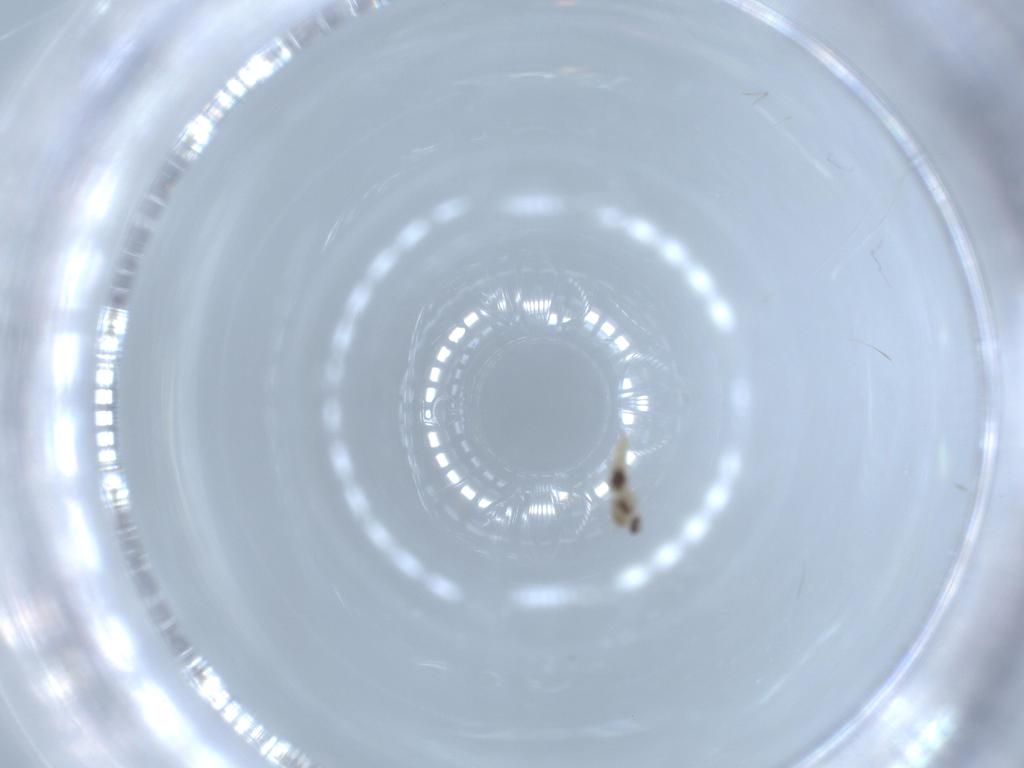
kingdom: Animalia
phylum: Arthropoda
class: Insecta
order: Diptera
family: Cecidomyiidae
